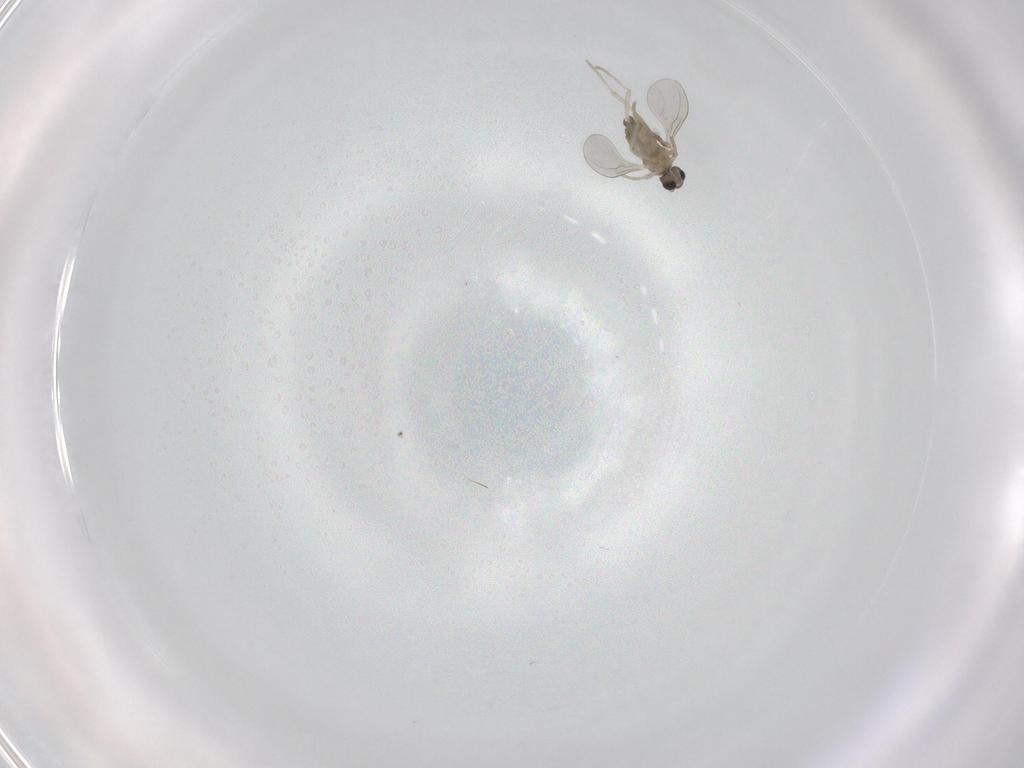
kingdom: Animalia
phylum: Arthropoda
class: Insecta
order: Diptera
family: Cecidomyiidae
